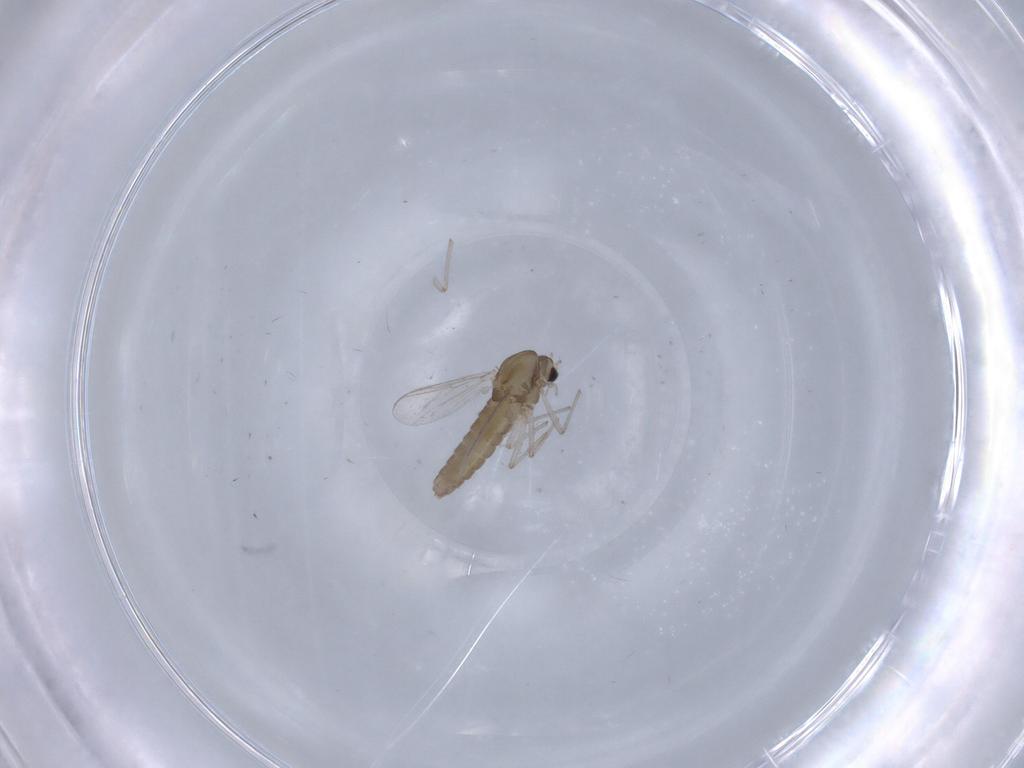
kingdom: Animalia
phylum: Arthropoda
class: Insecta
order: Diptera
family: Chironomidae
